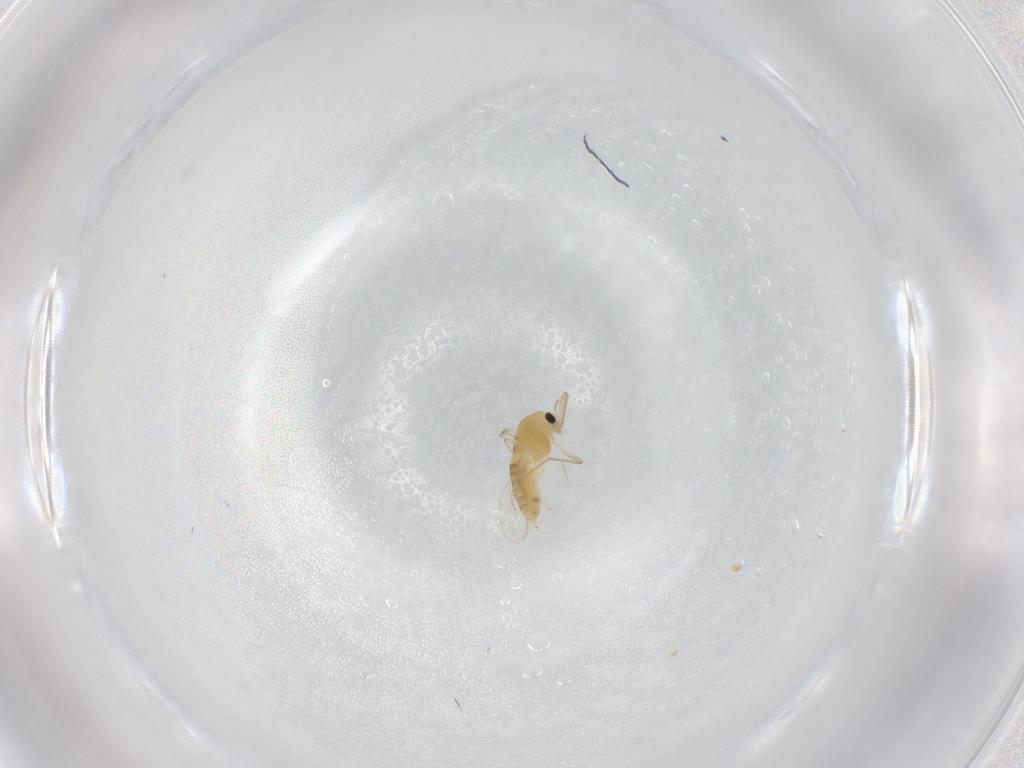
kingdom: Animalia
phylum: Arthropoda
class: Insecta
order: Diptera
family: Chironomidae
